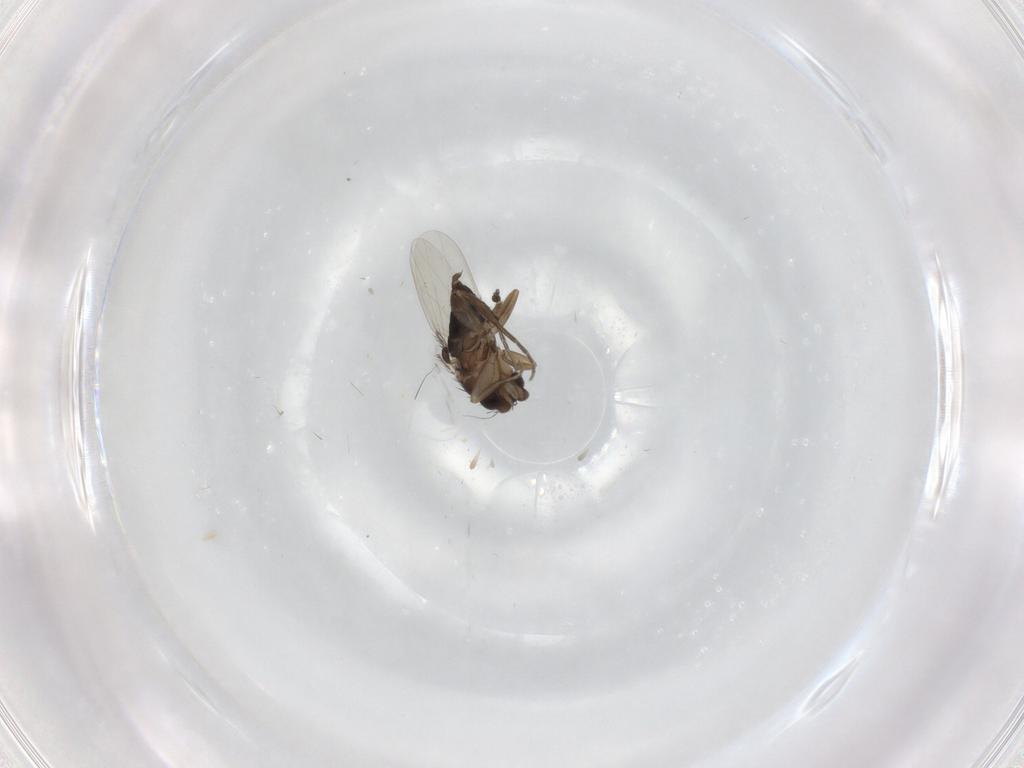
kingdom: Animalia
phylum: Arthropoda
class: Insecta
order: Diptera
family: Phoridae
